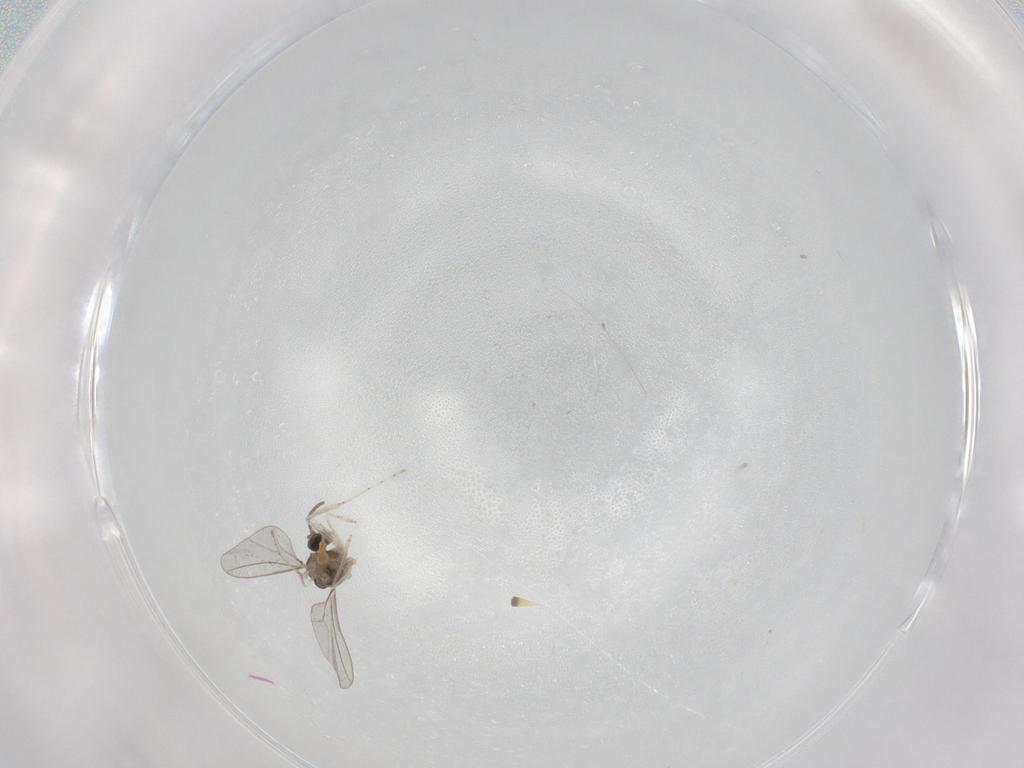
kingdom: Animalia
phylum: Arthropoda
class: Insecta
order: Diptera
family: Cecidomyiidae
